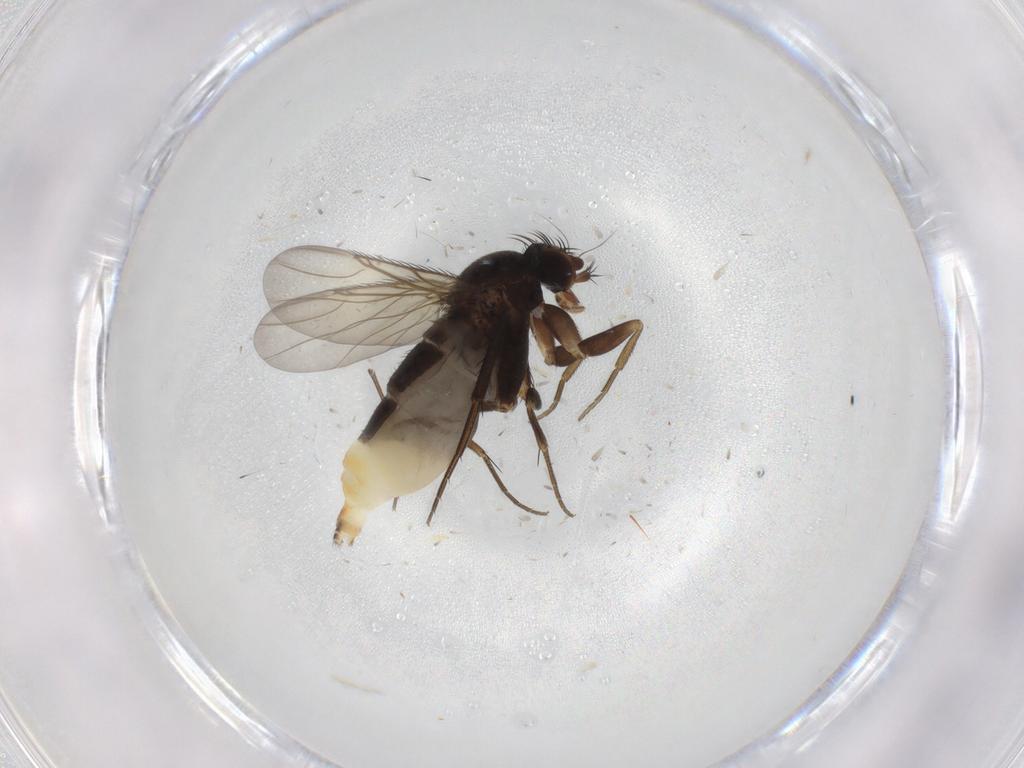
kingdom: Animalia
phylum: Arthropoda
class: Insecta
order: Diptera
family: Phoridae
